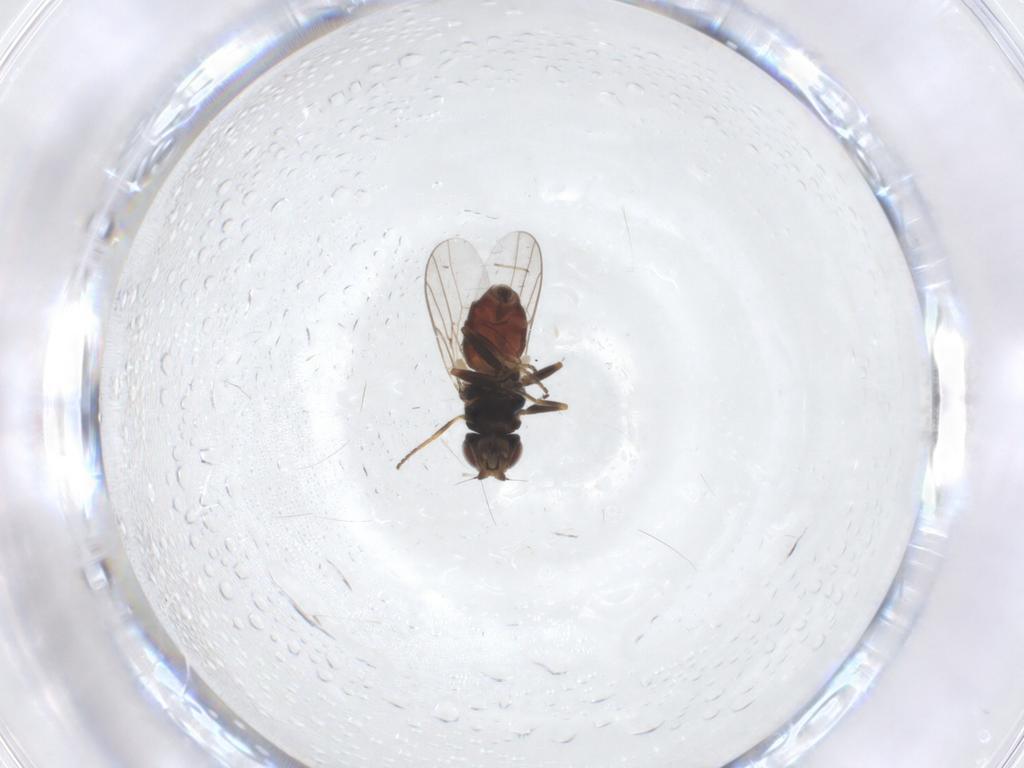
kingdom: Animalia
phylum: Arthropoda
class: Insecta
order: Diptera
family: Chloropidae
